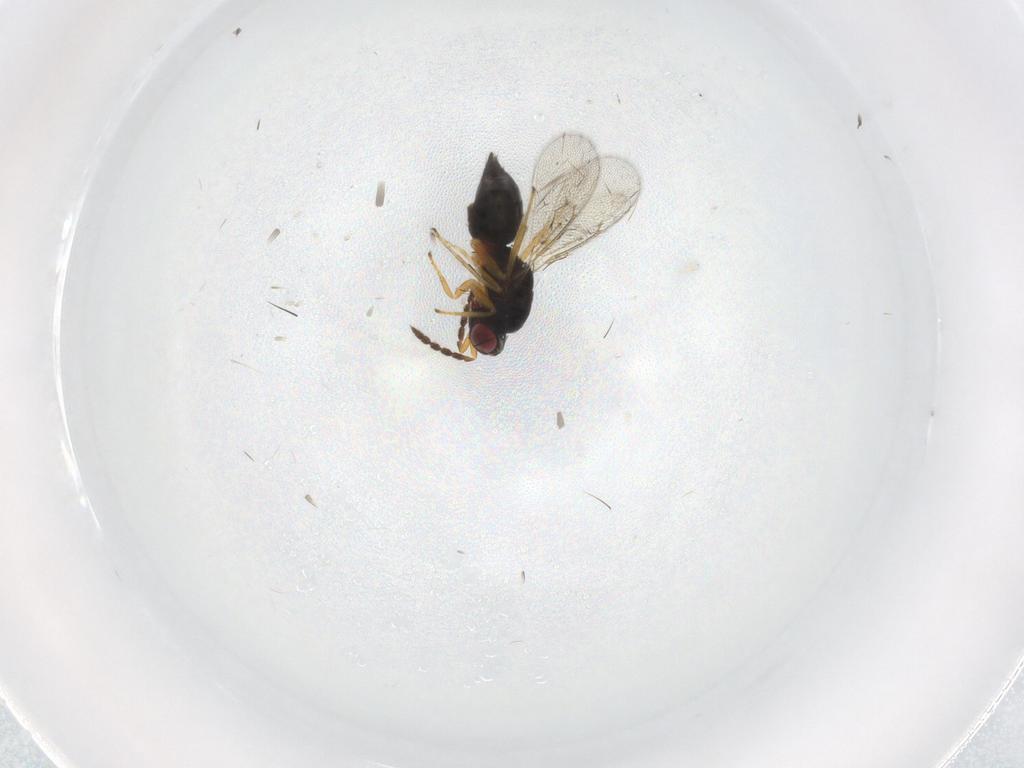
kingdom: Animalia
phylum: Arthropoda
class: Insecta
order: Hymenoptera
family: Eulophidae
